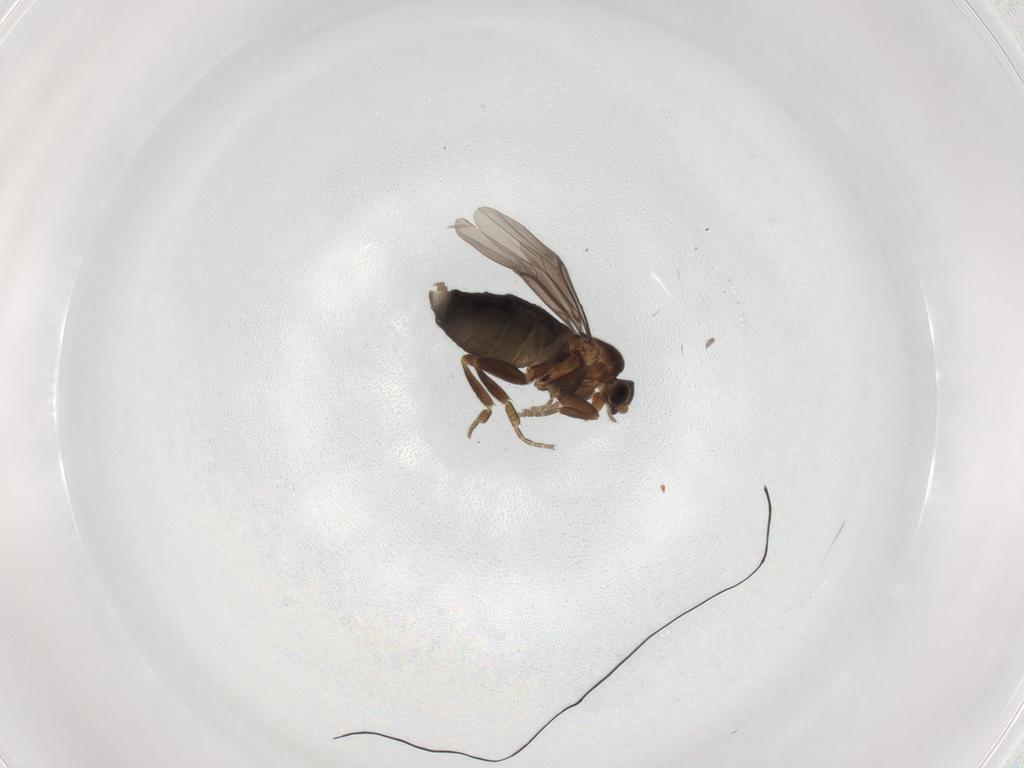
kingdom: Animalia
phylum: Arthropoda
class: Insecta
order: Diptera
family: Psychodidae
